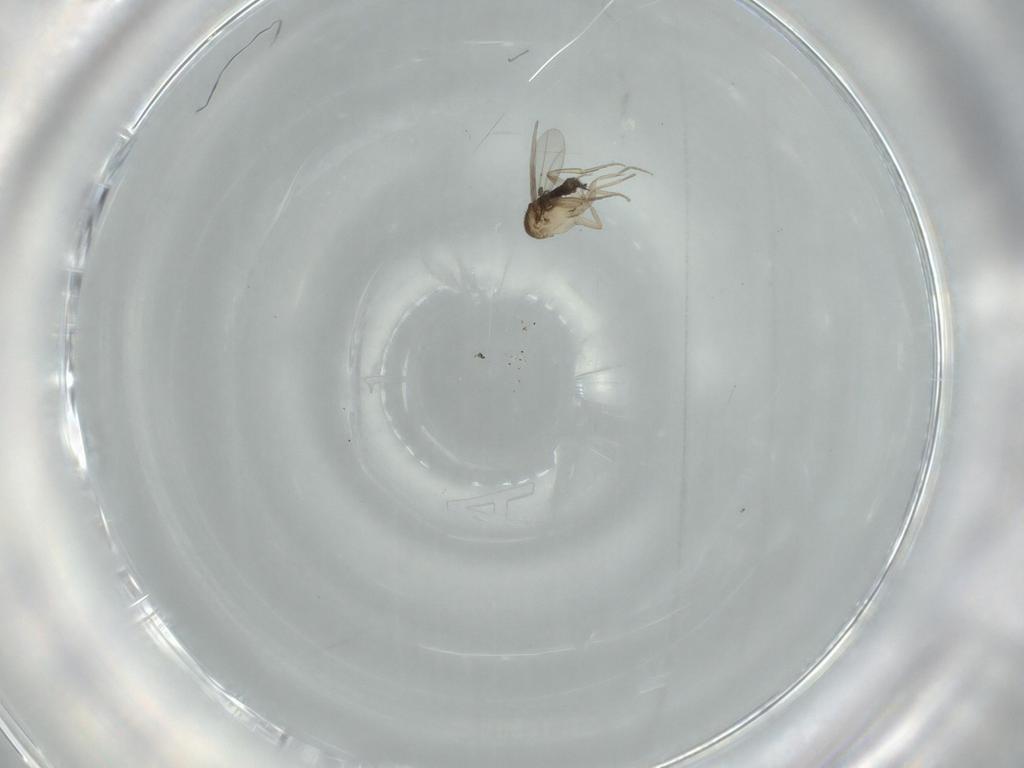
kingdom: Animalia
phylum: Arthropoda
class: Insecta
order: Diptera
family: Phoridae
